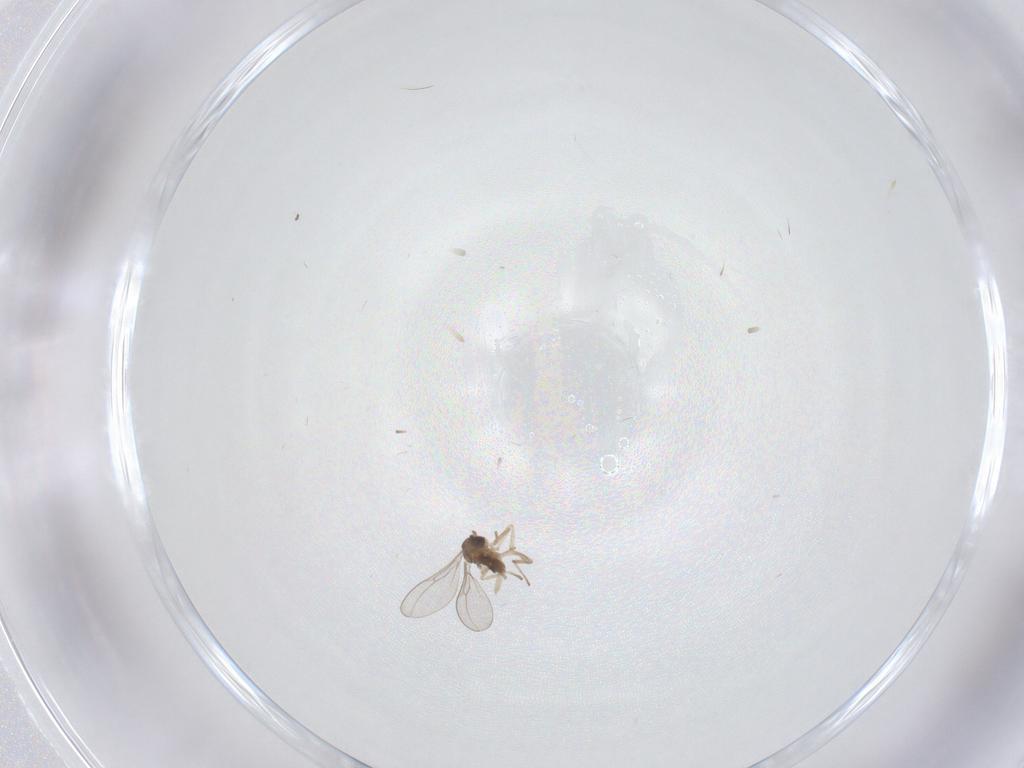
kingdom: Animalia
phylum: Arthropoda
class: Insecta
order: Diptera
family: Cecidomyiidae
